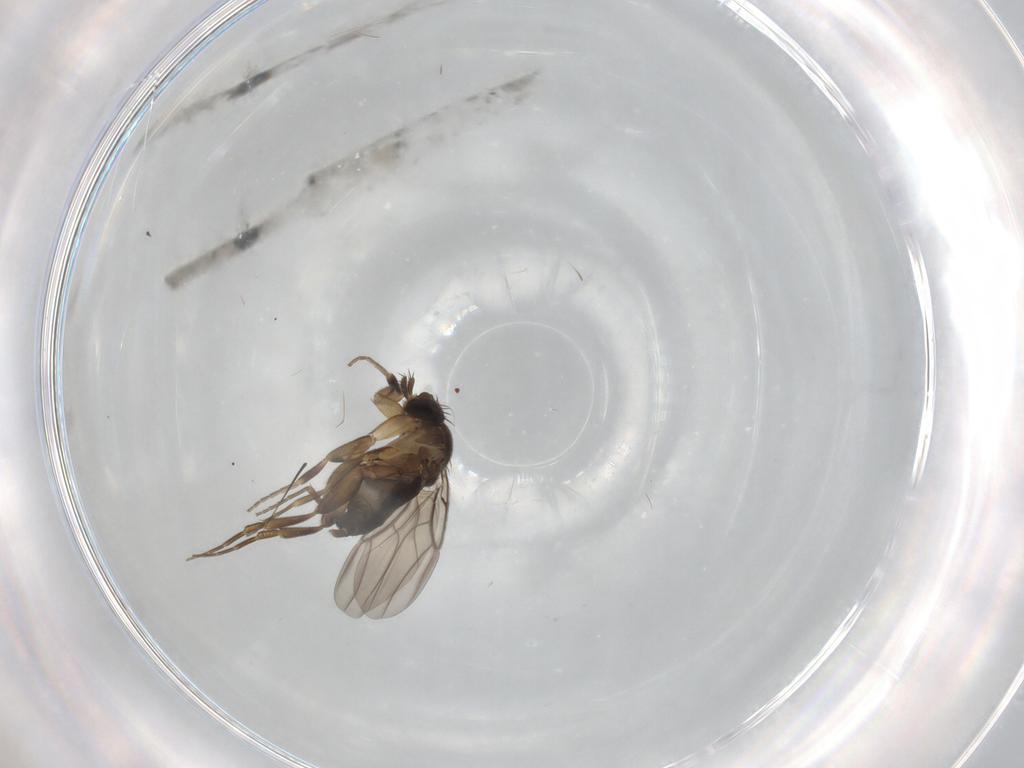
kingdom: Animalia
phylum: Arthropoda
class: Insecta
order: Diptera
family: Phoridae
